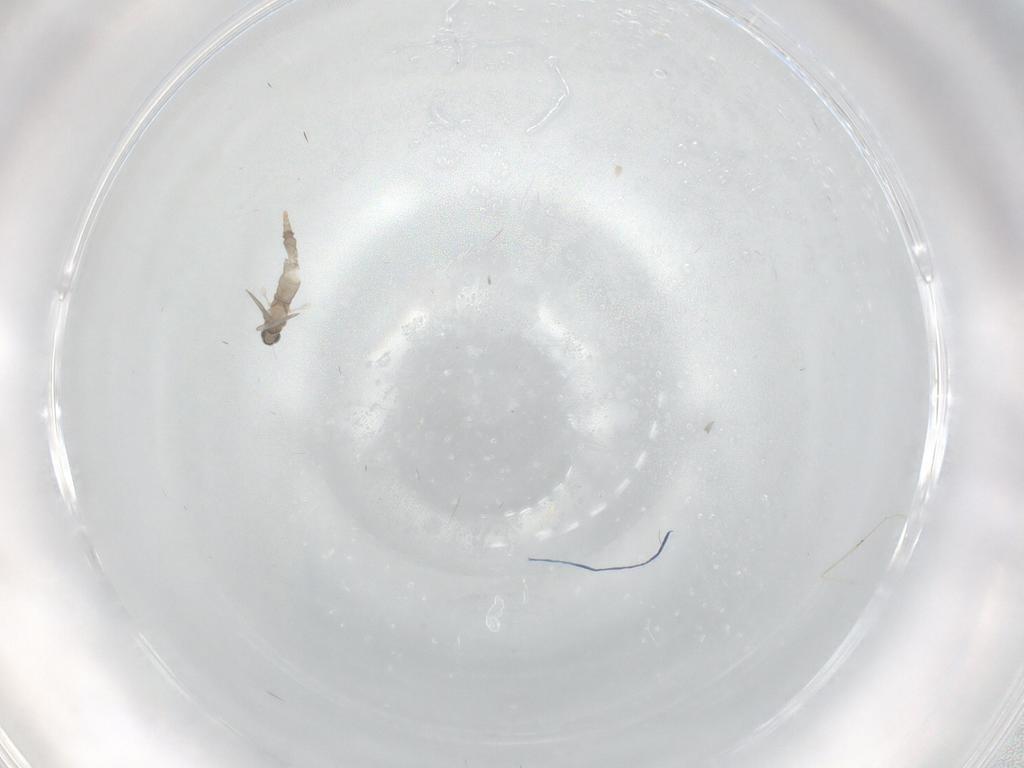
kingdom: Animalia
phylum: Arthropoda
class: Insecta
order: Diptera
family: Cecidomyiidae
